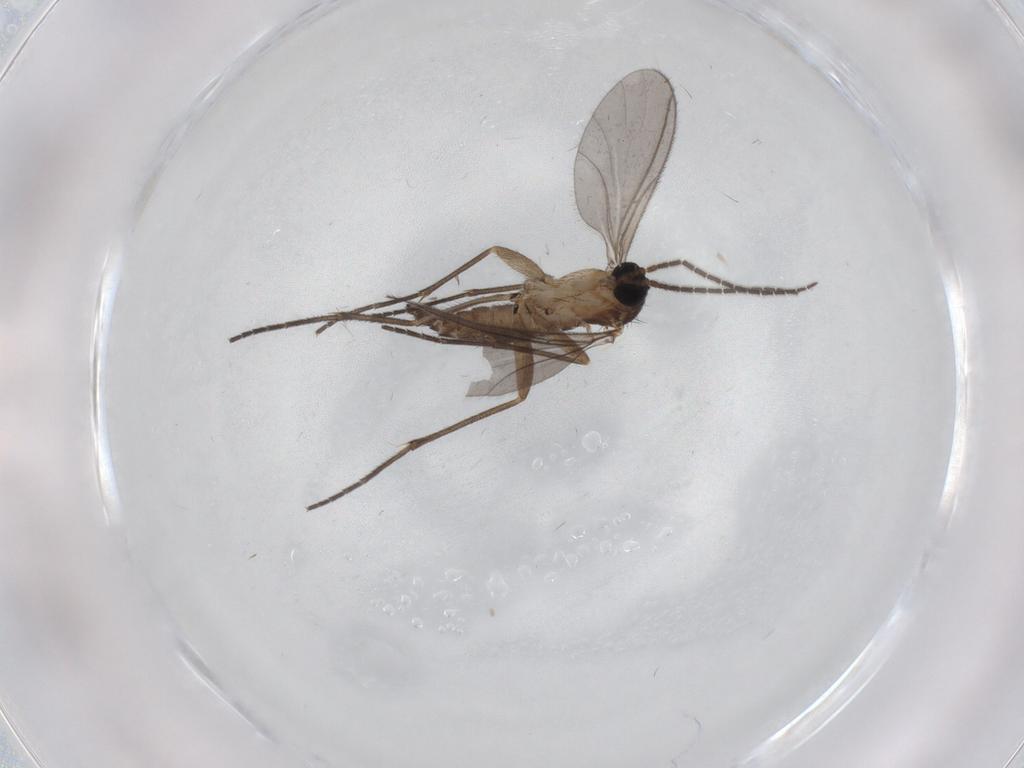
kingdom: Animalia
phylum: Arthropoda
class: Insecta
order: Diptera
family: Sciaridae
